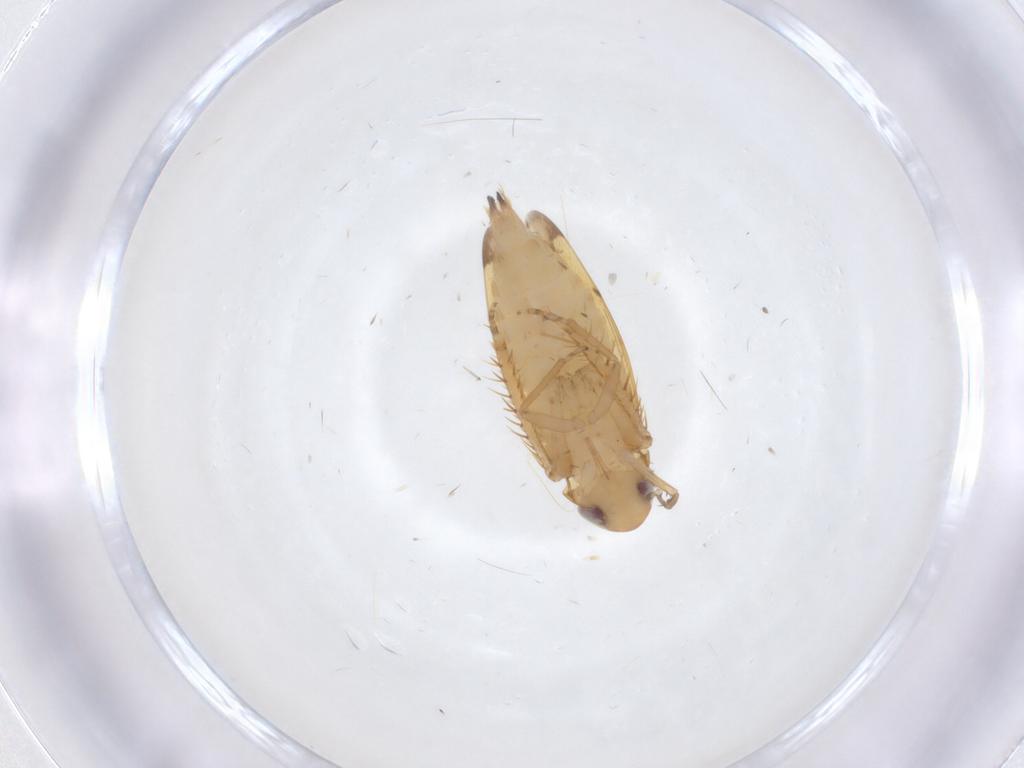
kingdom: Animalia
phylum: Arthropoda
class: Insecta
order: Hemiptera
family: Cicadellidae
